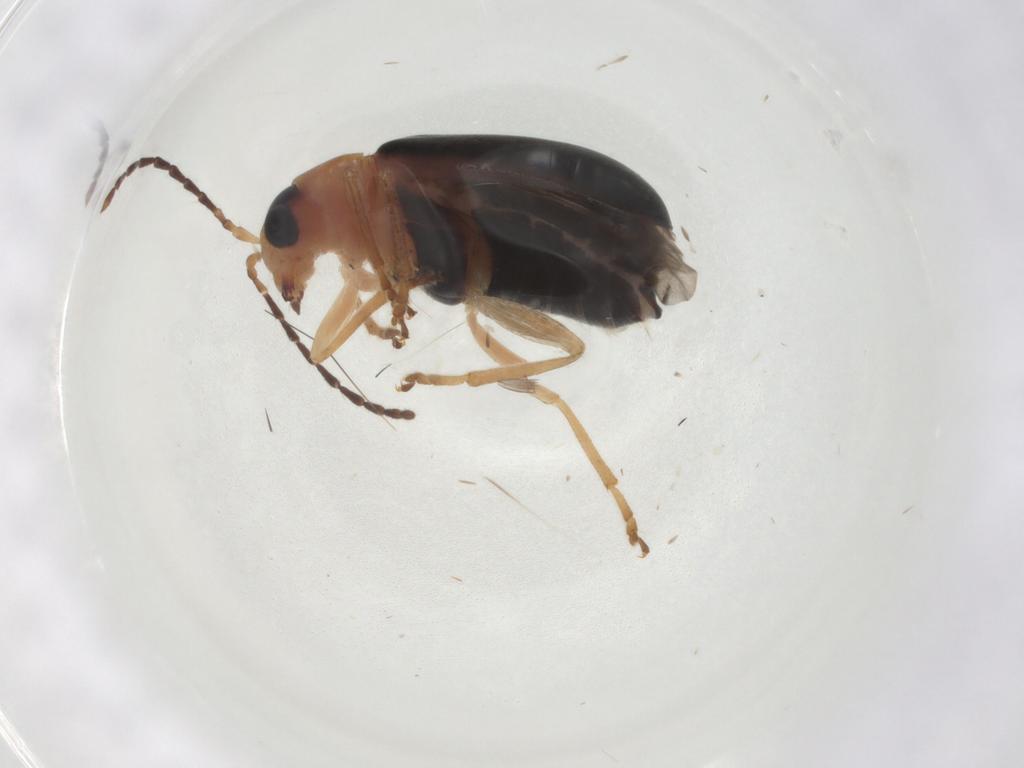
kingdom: Animalia
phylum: Arthropoda
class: Insecta
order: Coleoptera
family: Chrysomelidae
